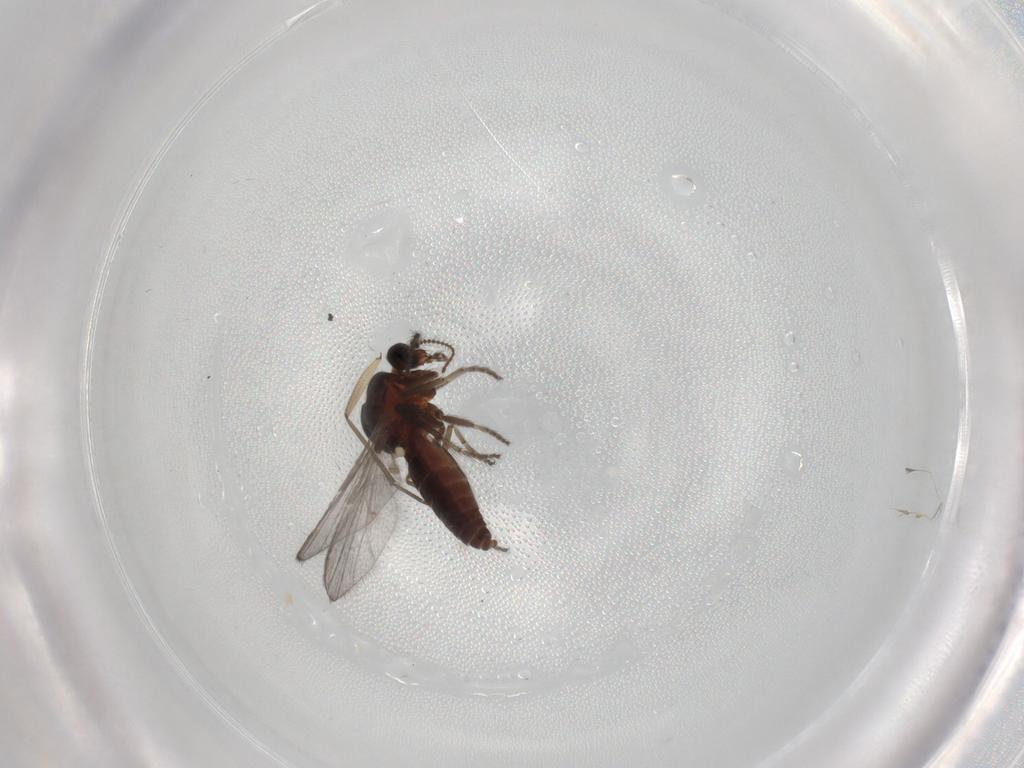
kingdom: Animalia
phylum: Arthropoda
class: Insecta
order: Diptera
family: Ceratopogonidae
